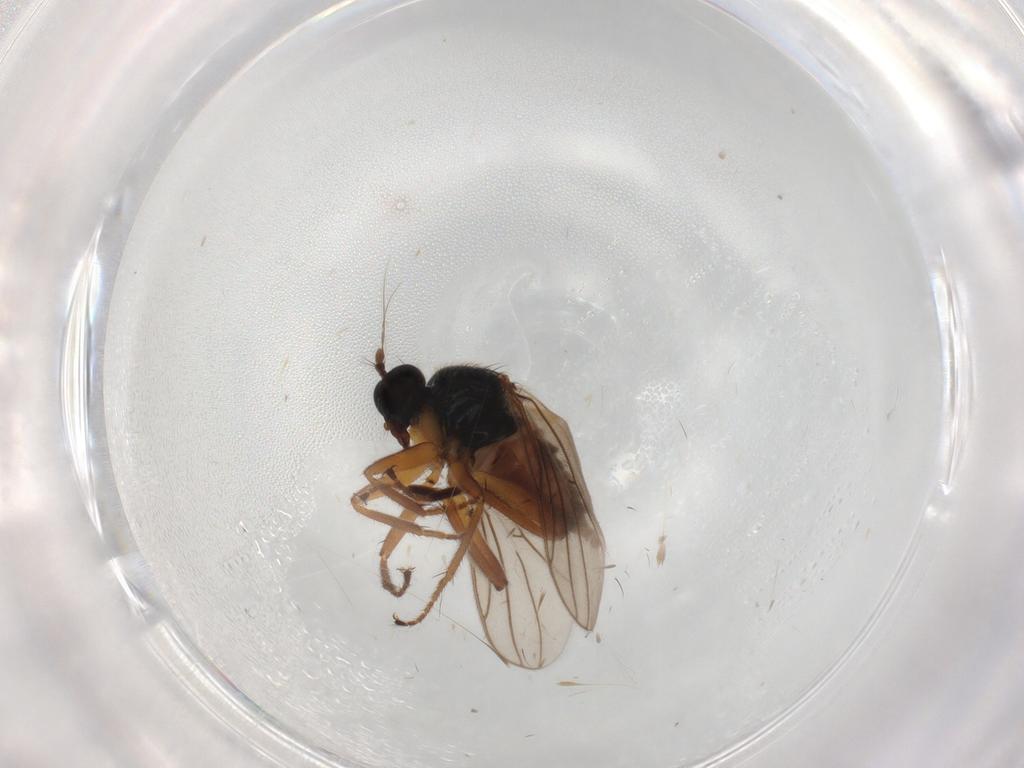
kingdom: Animalia
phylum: Arthropoda
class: Insecta
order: Diptera
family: Hybotidae
